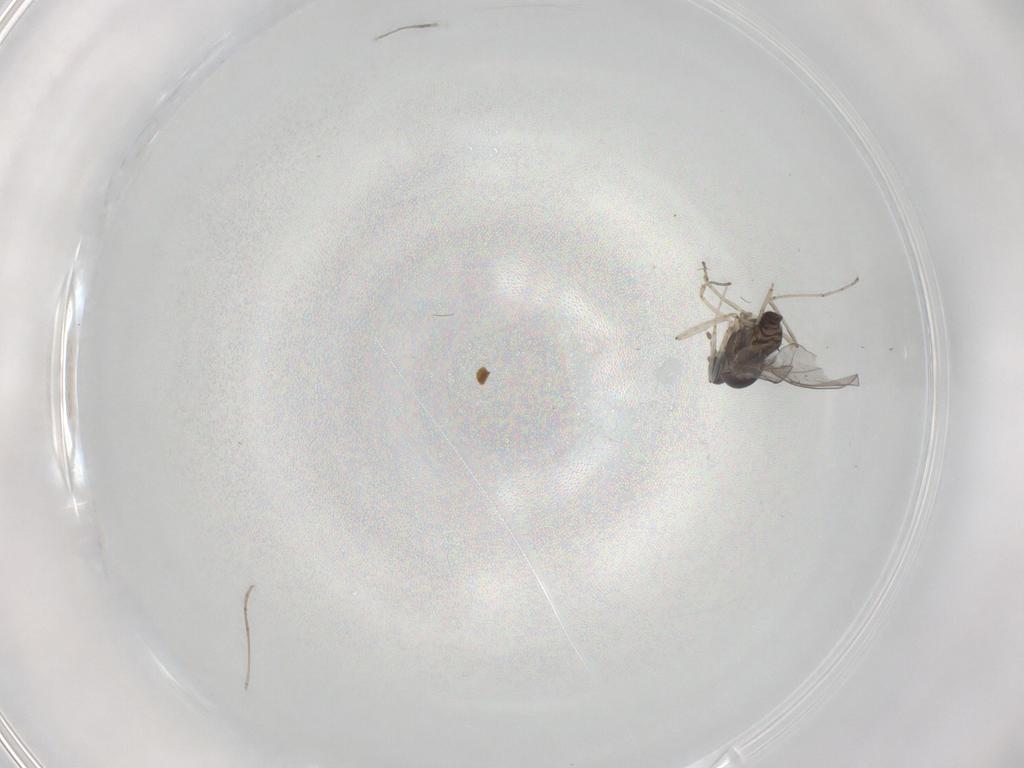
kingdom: Animalia
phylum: Arthropoda
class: Insecta
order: Diptera
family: Cecidomyiidae
